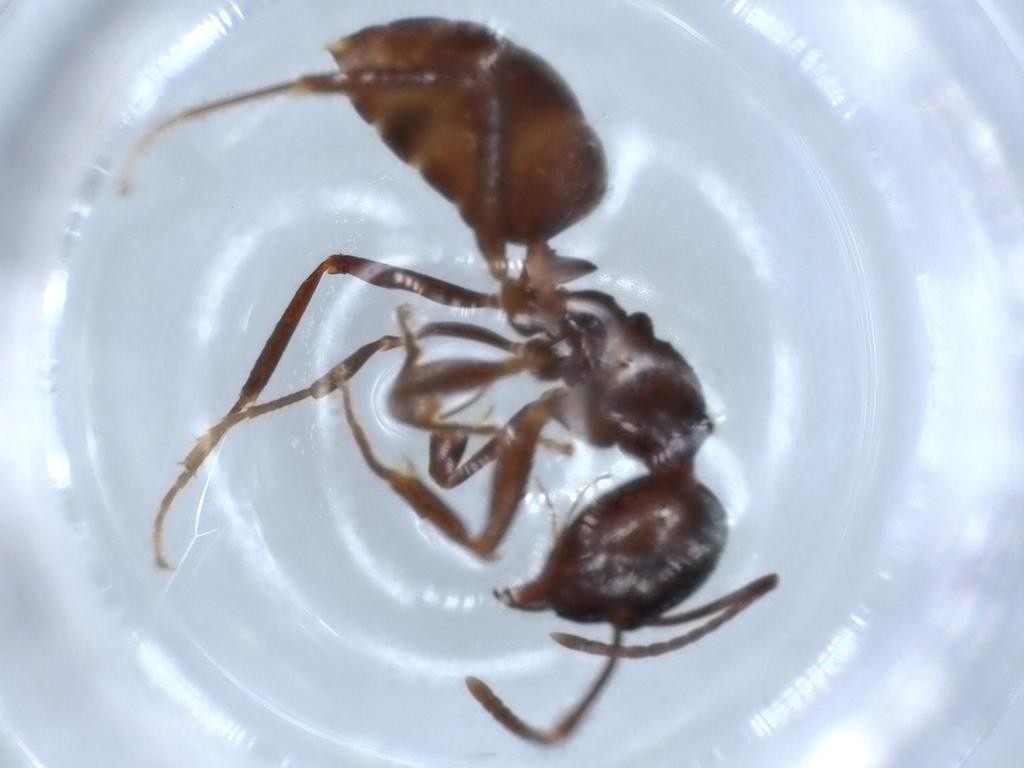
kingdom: Animalia
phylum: Arthropoda
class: Insecta
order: Hymenoptera
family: Formicidae
